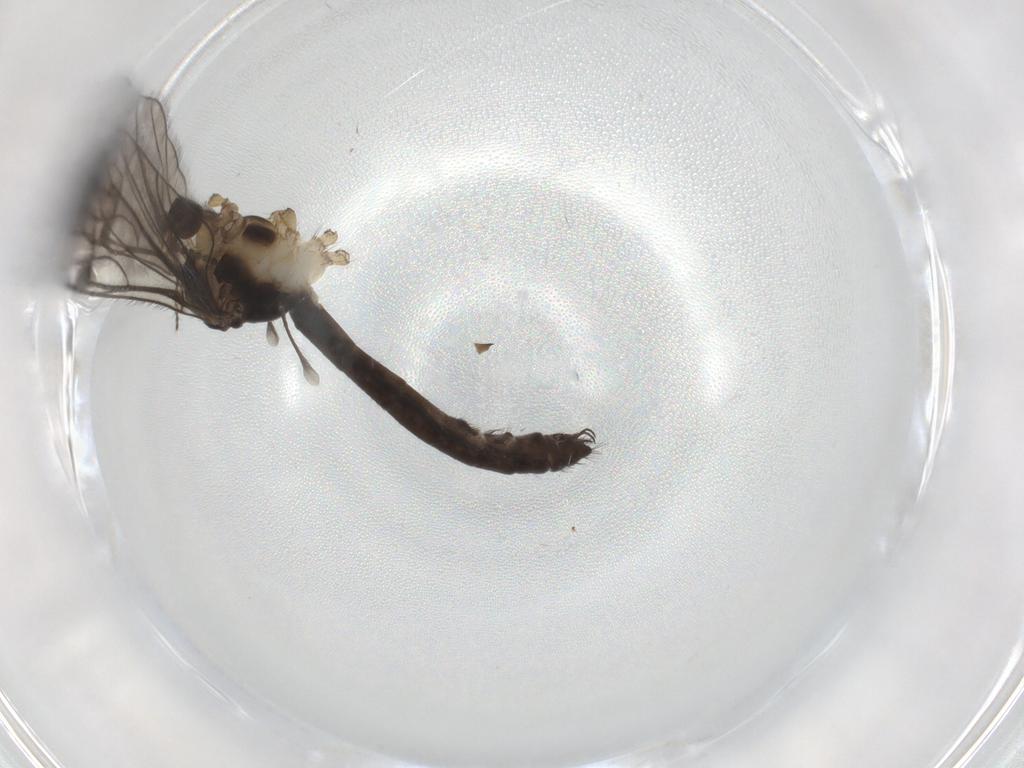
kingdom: Animalia
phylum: Arthropoda
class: Insecta
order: Diptera
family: Limoniidae
